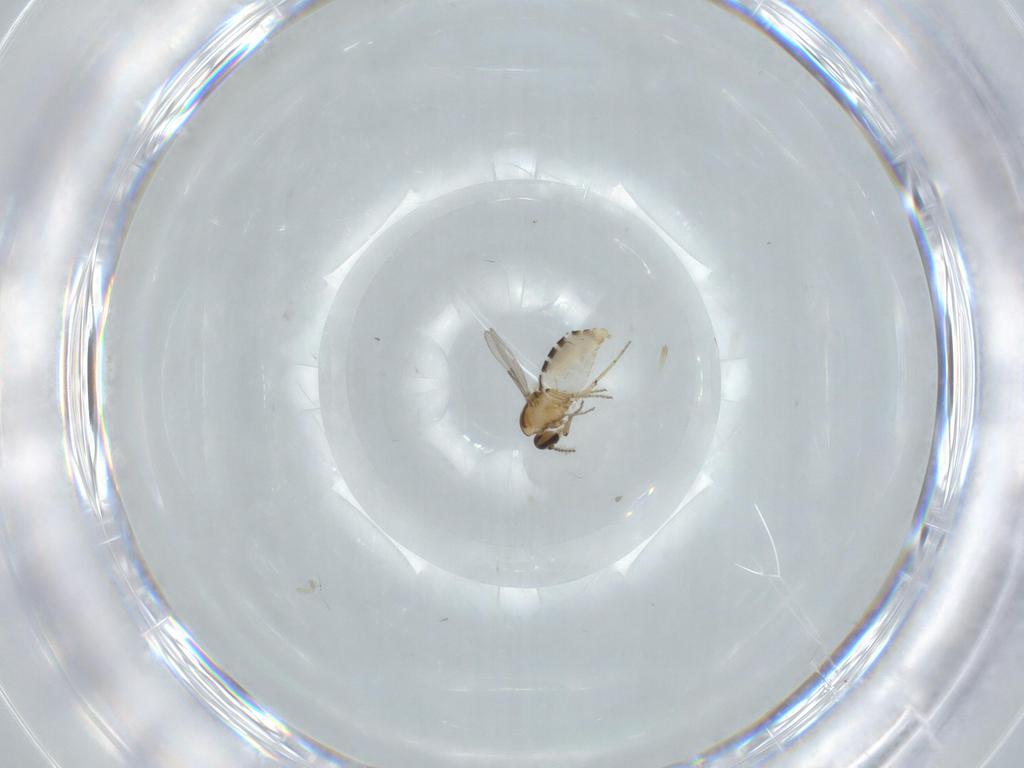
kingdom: Animalia
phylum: Arthropoda
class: Insecta
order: Diptera
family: Ceratopogonidae
